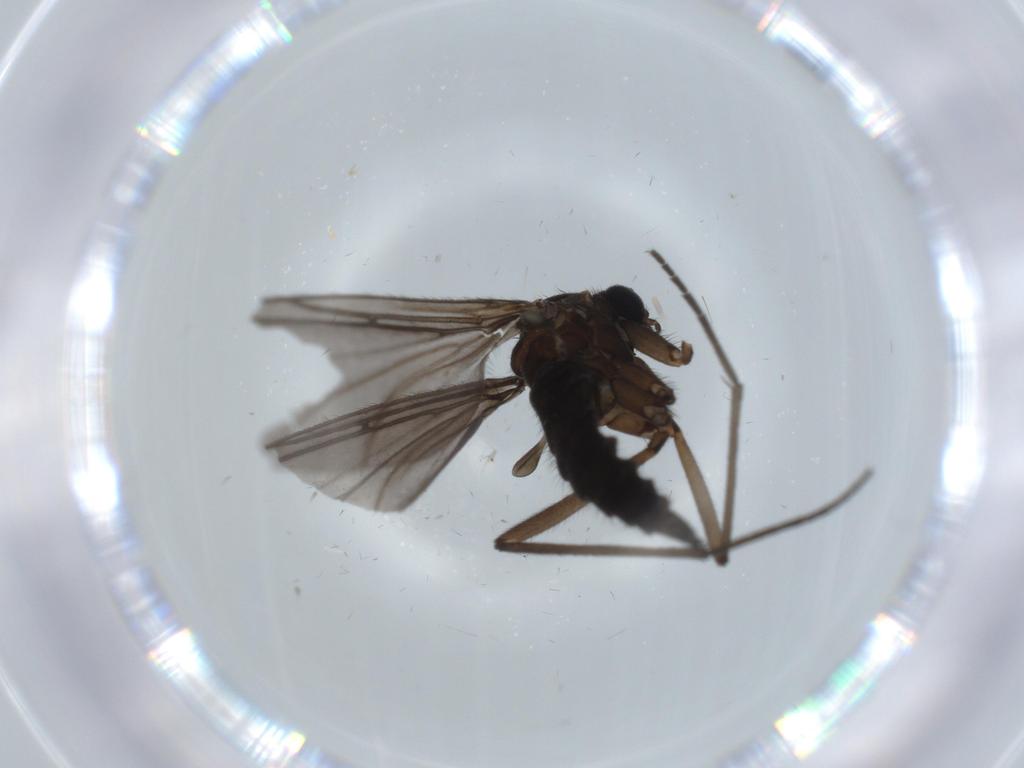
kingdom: Animalia
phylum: Arthropoda
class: Insecta
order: Diptera
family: Sciaridae
